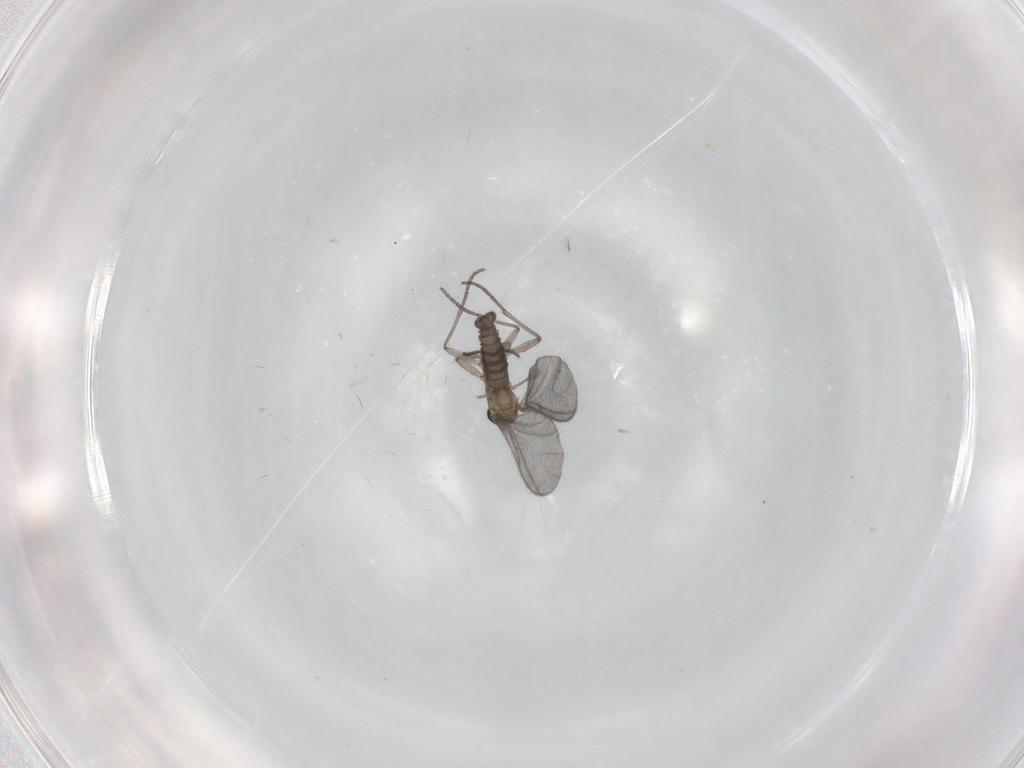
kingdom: Animalia
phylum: Arthropoda
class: Insecta
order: Diptera
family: Sciaridae
